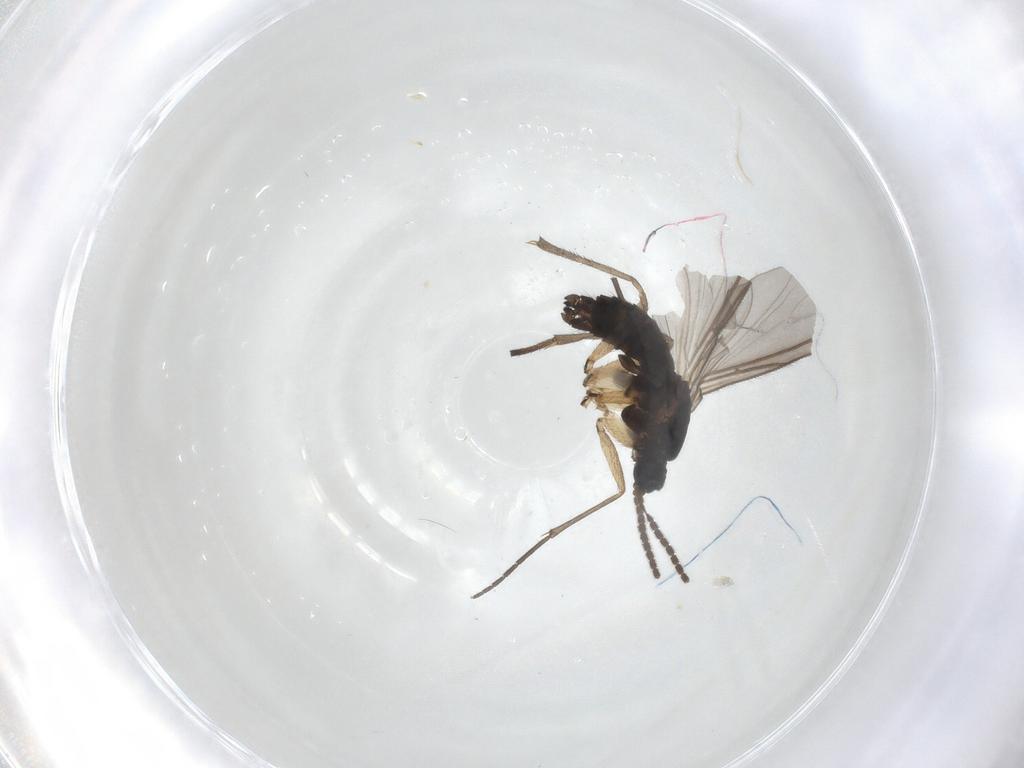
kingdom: Animalia
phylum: Arthropoda
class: Insecta
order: Diptera
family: Sciaridae
